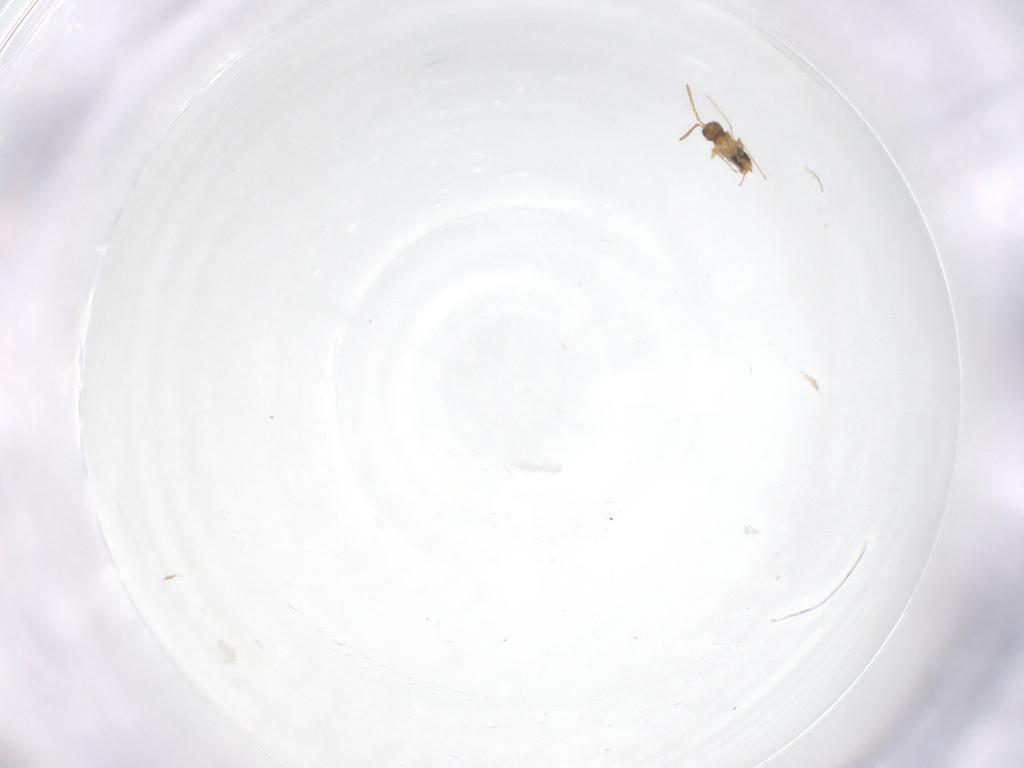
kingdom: Animalia
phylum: Arthropoda
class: Insecta
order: Hymenoptera
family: Aphelinidae
